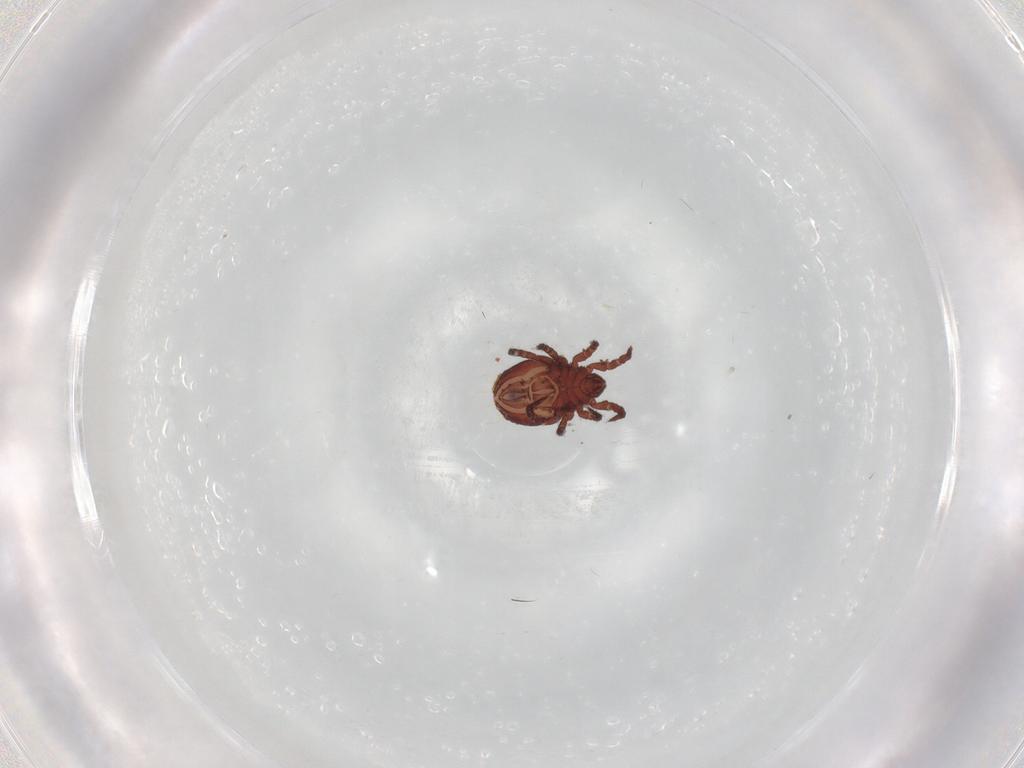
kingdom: Animalia
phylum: Arthropoda
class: Arachnida
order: Sarcoptiformes
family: Nothridae
